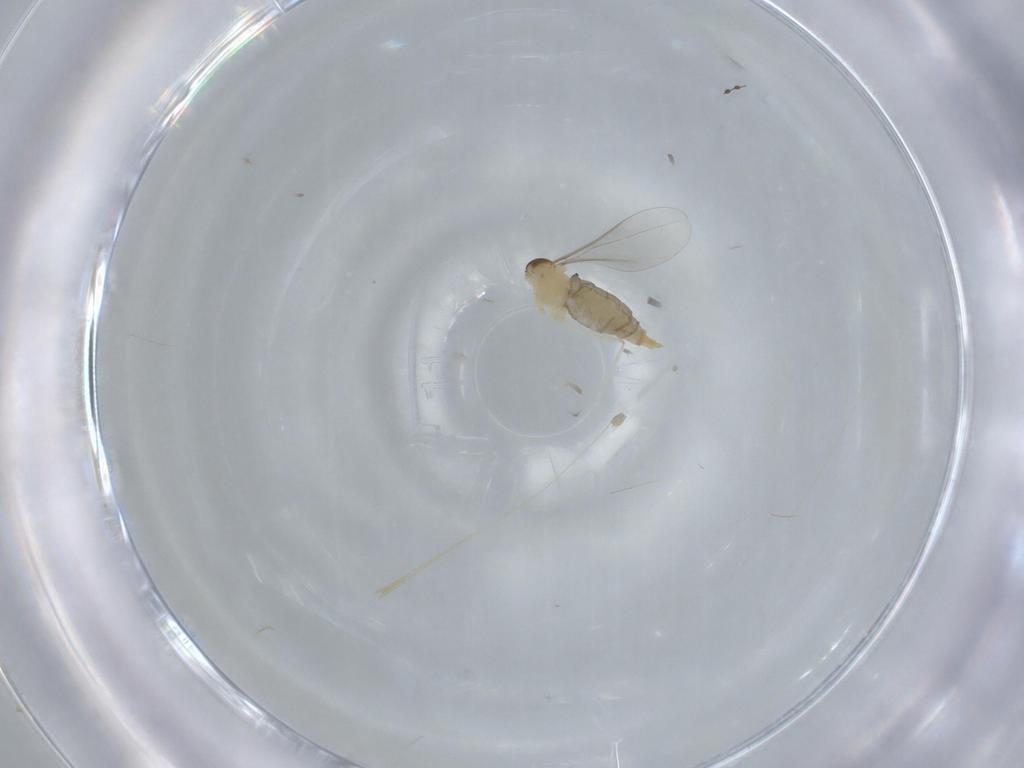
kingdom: Animalia
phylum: Arthropoda
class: Insecta
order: Diptera
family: Cecidomyiidae
